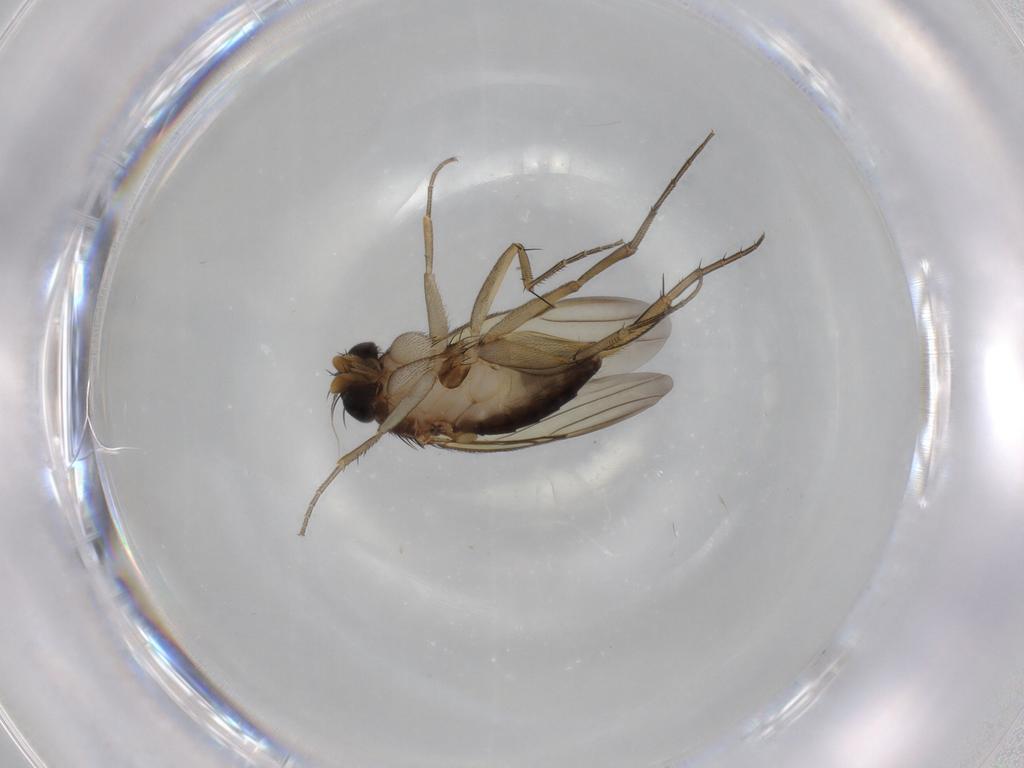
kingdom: Animalia
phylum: Arthropoda
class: Insecta
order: Diptera
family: Phoridae
